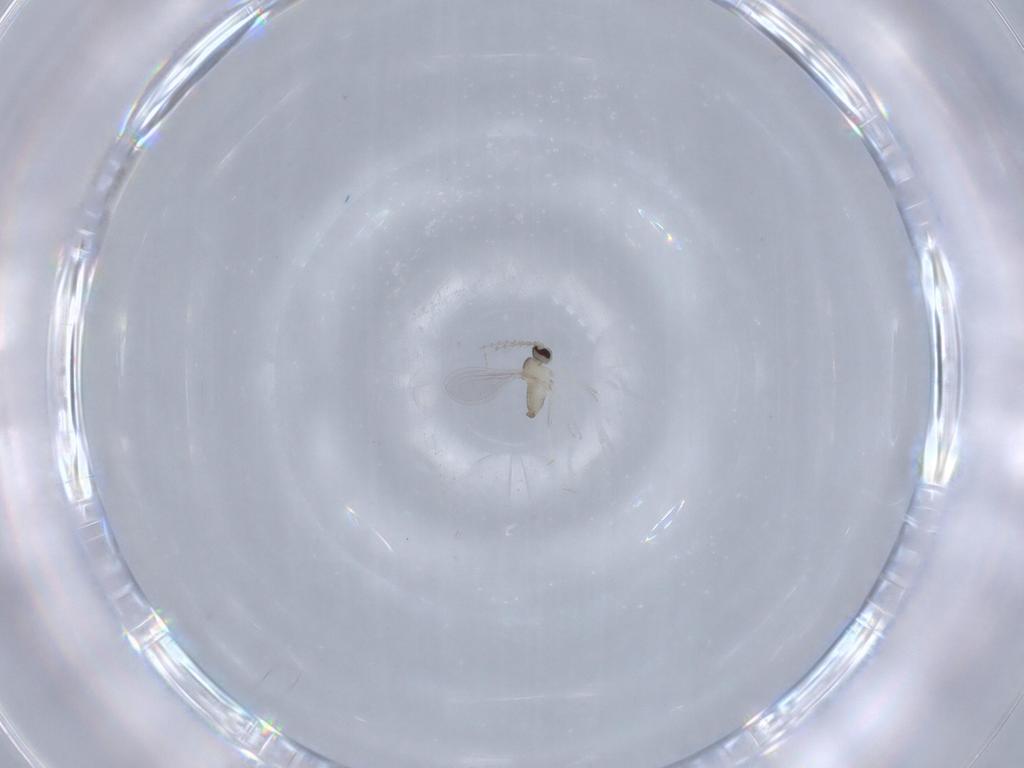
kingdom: Animalia
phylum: Arthropoda
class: Insecta
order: Diptera
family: Cecidomyiidae
